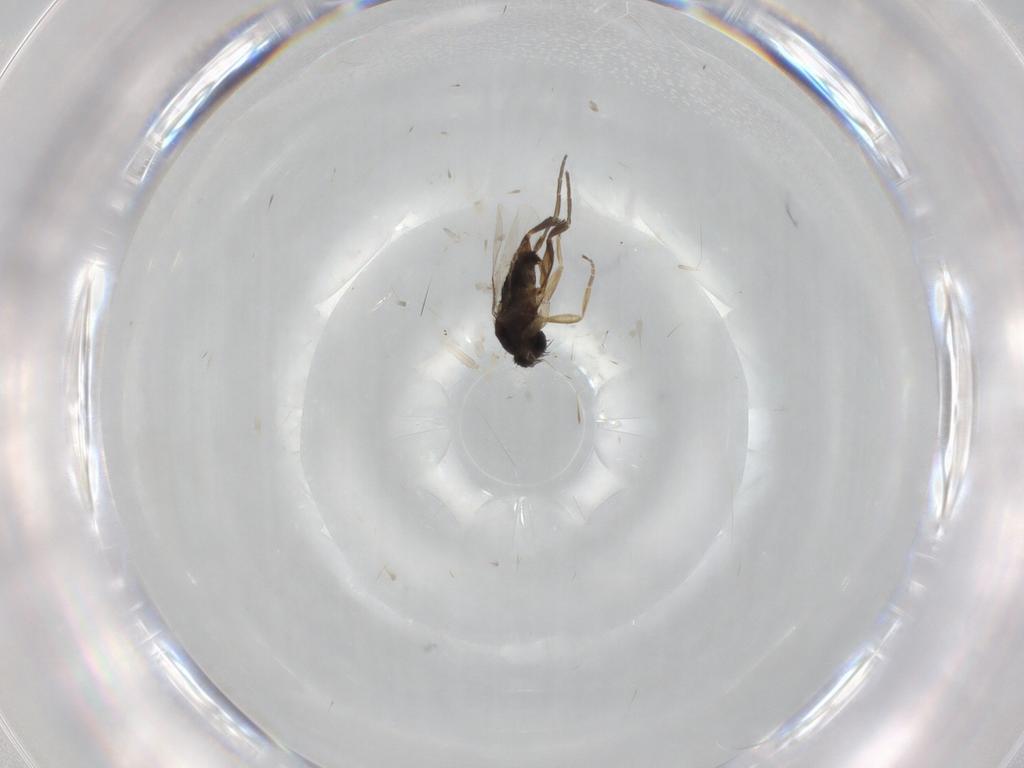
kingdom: Animalia
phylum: Arthropoda
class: Insecta
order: Diptera
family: Phoridae
